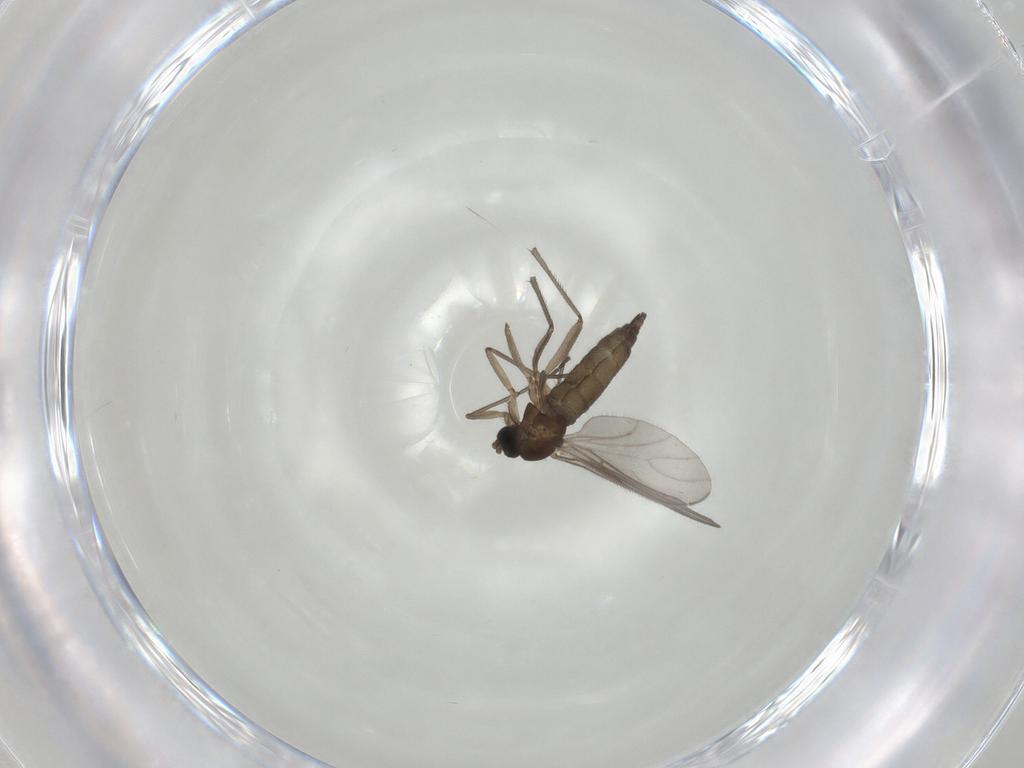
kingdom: Animalia
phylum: Arthropoda
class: Insecta
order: Diptera
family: Sciaridae
